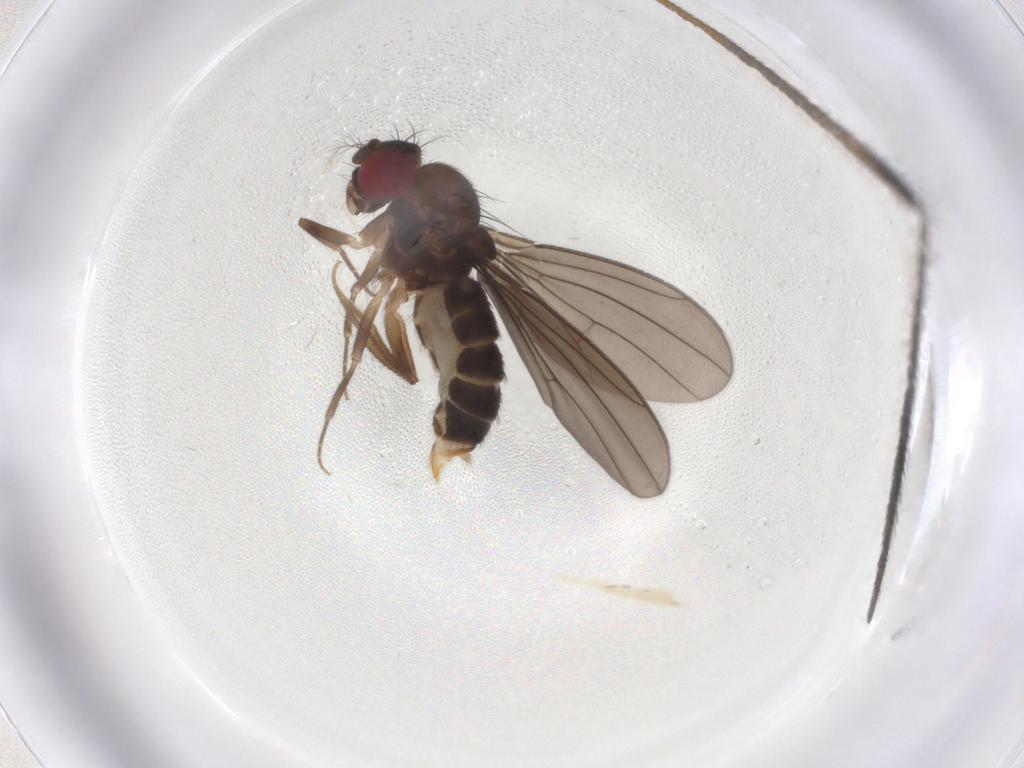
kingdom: Animalia
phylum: Arthropoda
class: Insecta
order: Diptera
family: Limoniidae
